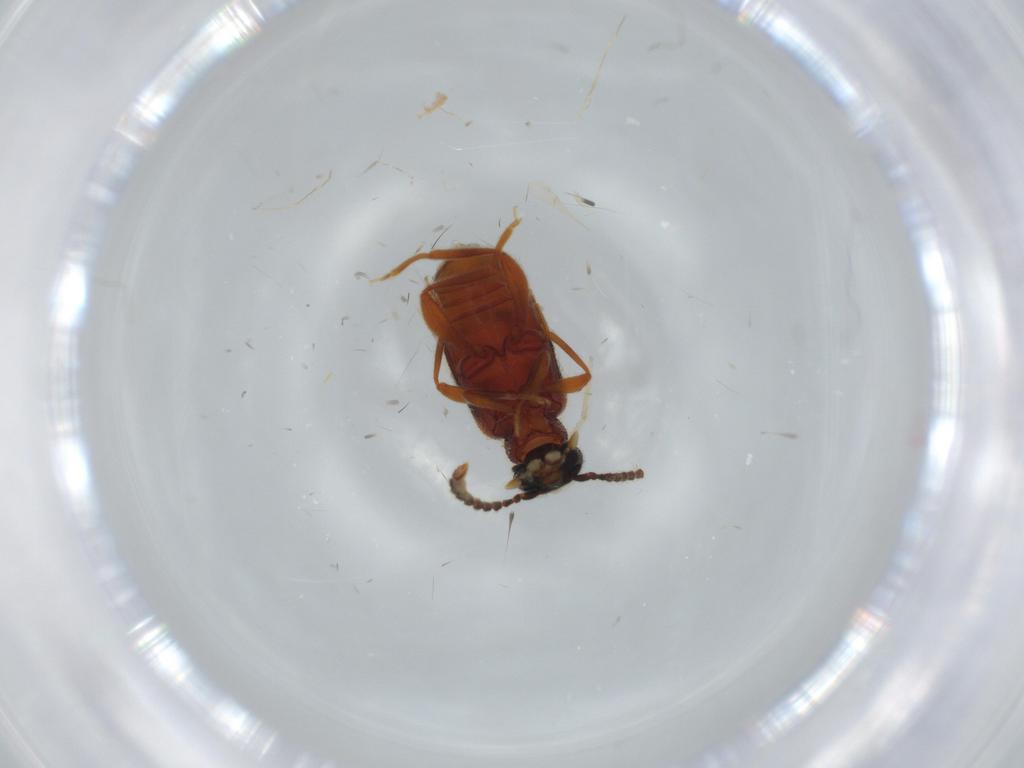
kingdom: Animalia
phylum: Arthropoda
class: Insecta
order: Coleoptera
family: Aderidae
